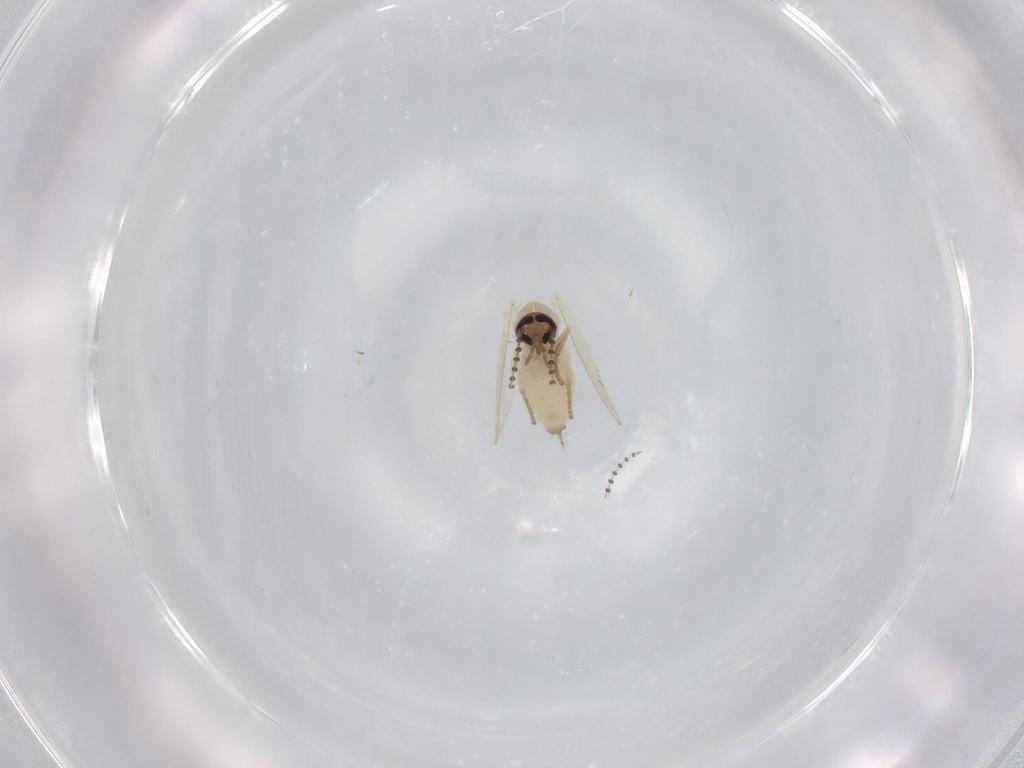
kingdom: Animalia
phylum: Arthropoda
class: Insecta
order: Diptera
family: Psychodidae
